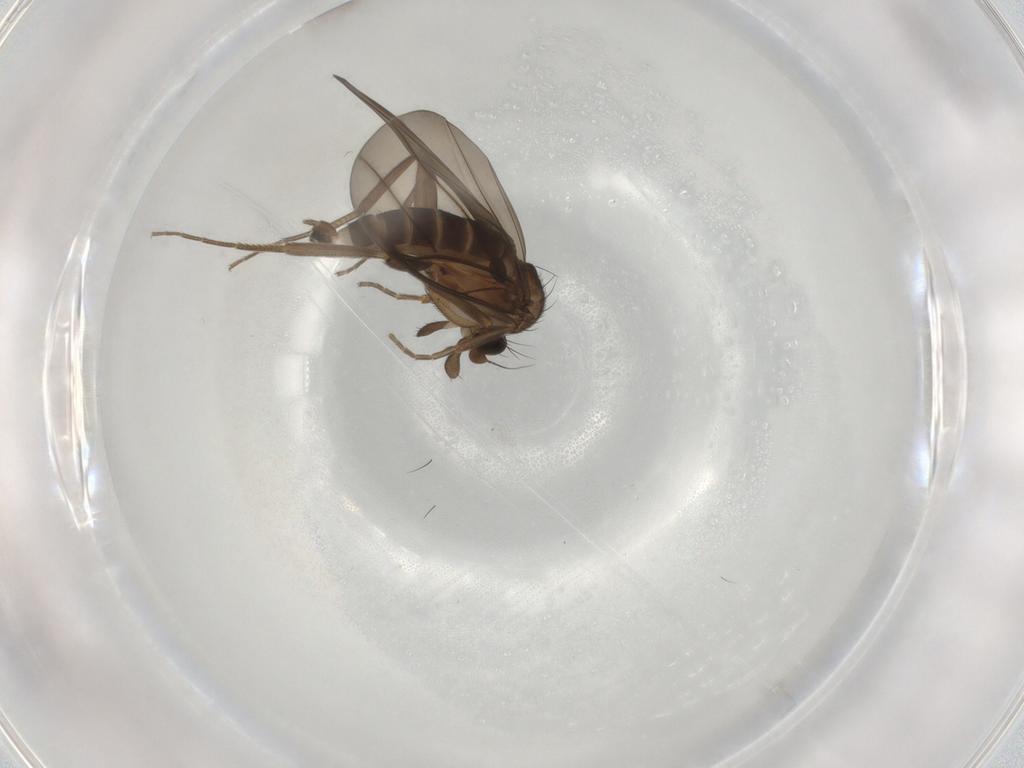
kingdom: Animalia
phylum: Arthropoda
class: Insecta
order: Diptera
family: Phoridae
